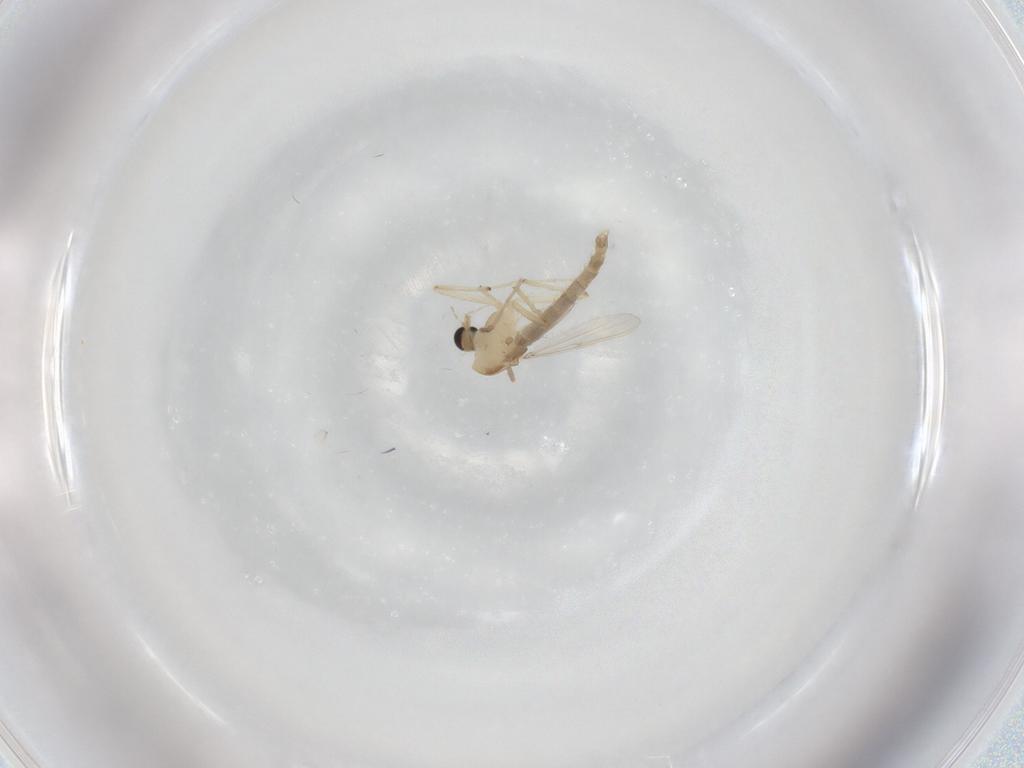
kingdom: Animalia
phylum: Arthropoda
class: Insecta
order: Diptera
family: Chironomidae
